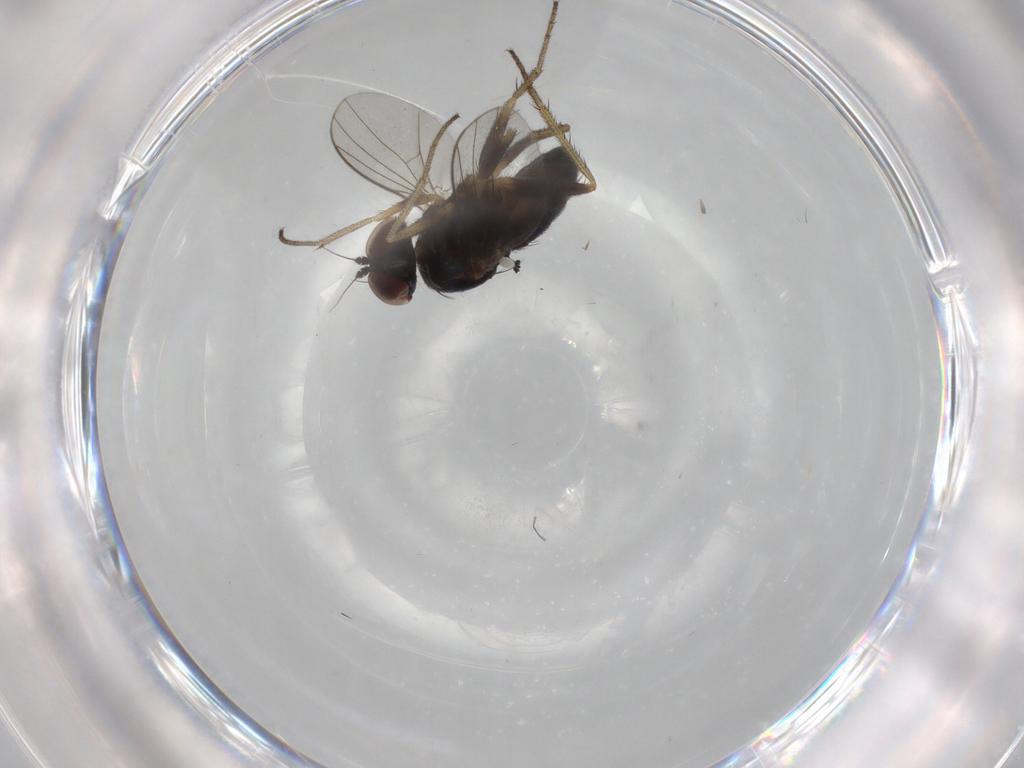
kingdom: Animalia
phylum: Arthropoda
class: Insecta
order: Diptera
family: Dolichopodidae
